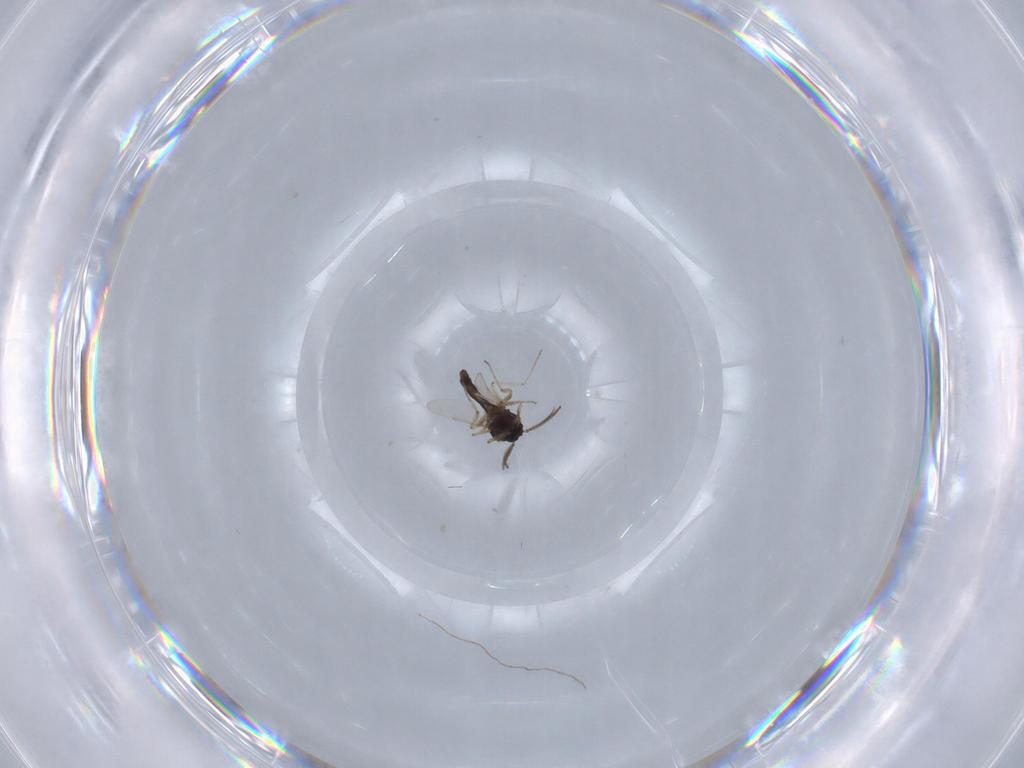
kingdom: Animalia
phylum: Arthropoda
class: Insecta
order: Diptera
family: Ceratopogonidae
